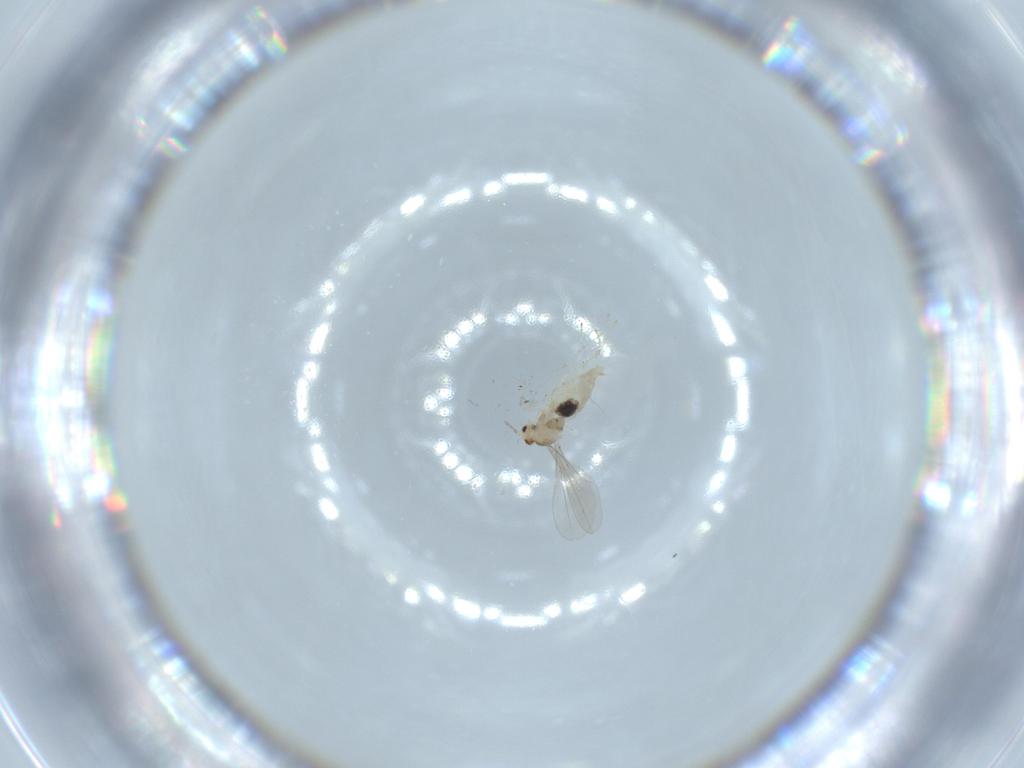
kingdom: Animalia
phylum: Arthropoda
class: Insecta
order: Diptera
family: Cecidomyiidae
